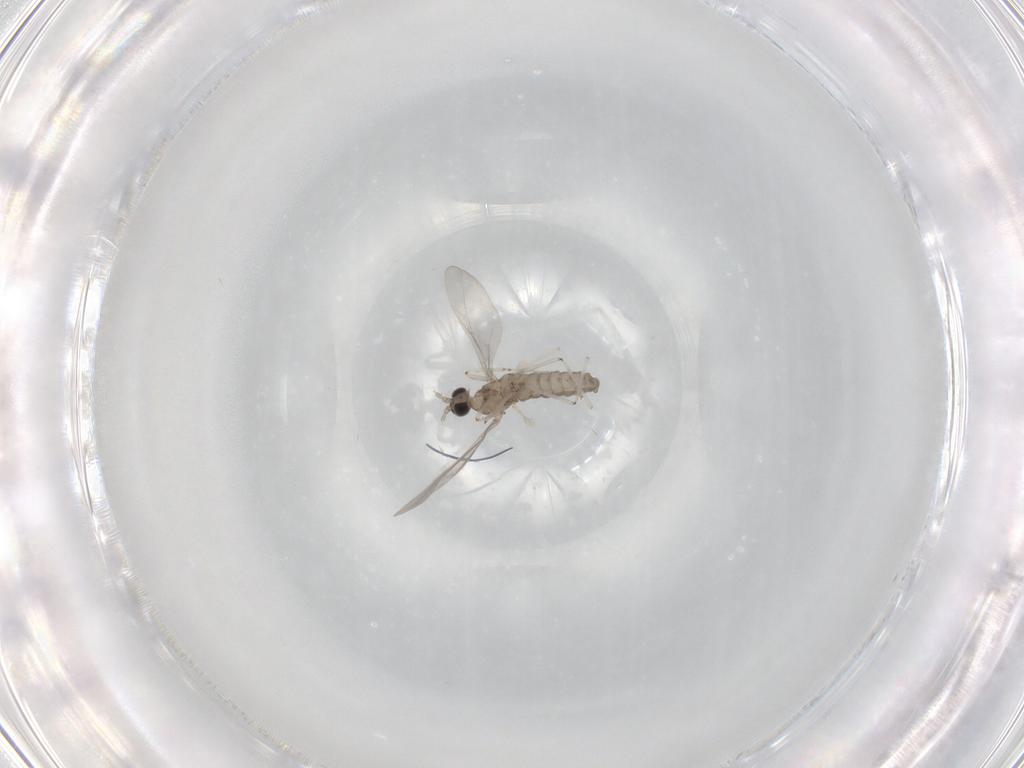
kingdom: Animalia
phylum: Arthropoda
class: Insecta
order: Diptera
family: Cecidomyiidae
